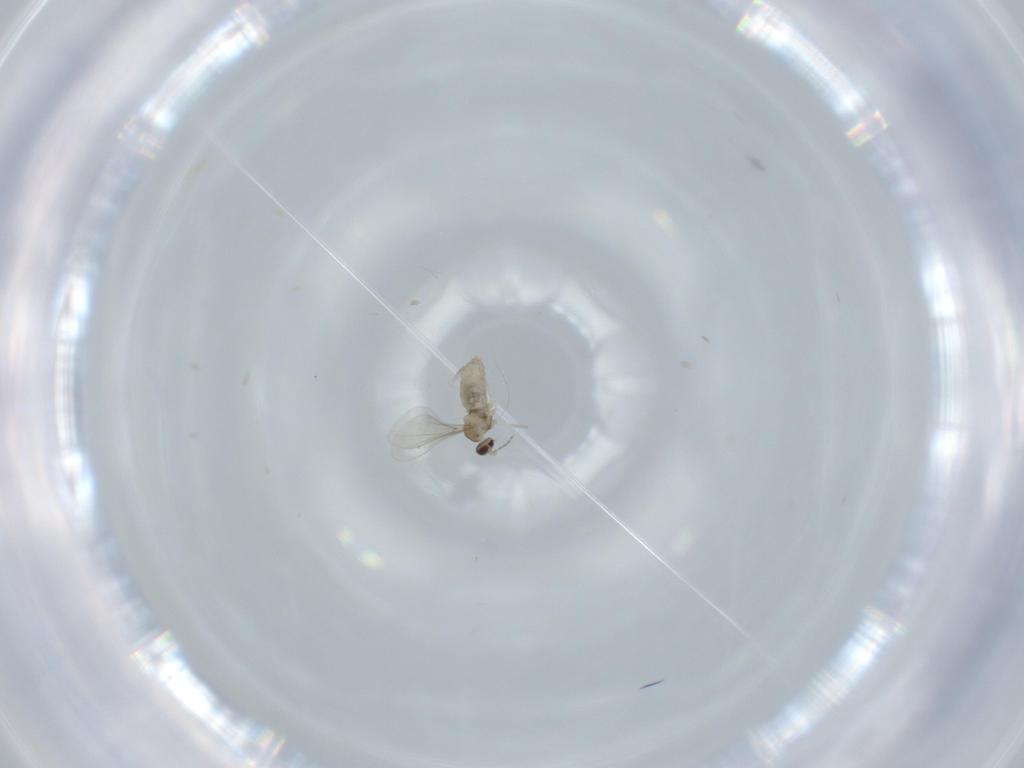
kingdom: Animalia
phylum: Arthropoda
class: Insecta
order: Diptera
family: Cecidomyiidae
